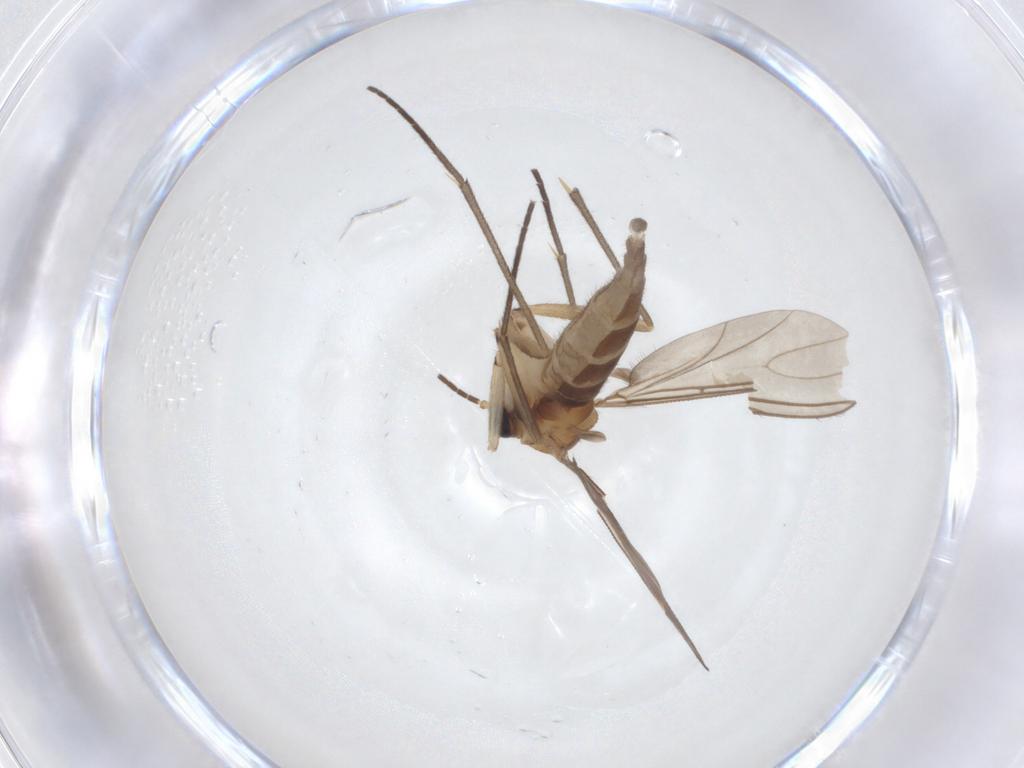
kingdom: Animalia
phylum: Arthropoda
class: Insecta
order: Diptera
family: Sciaridae
